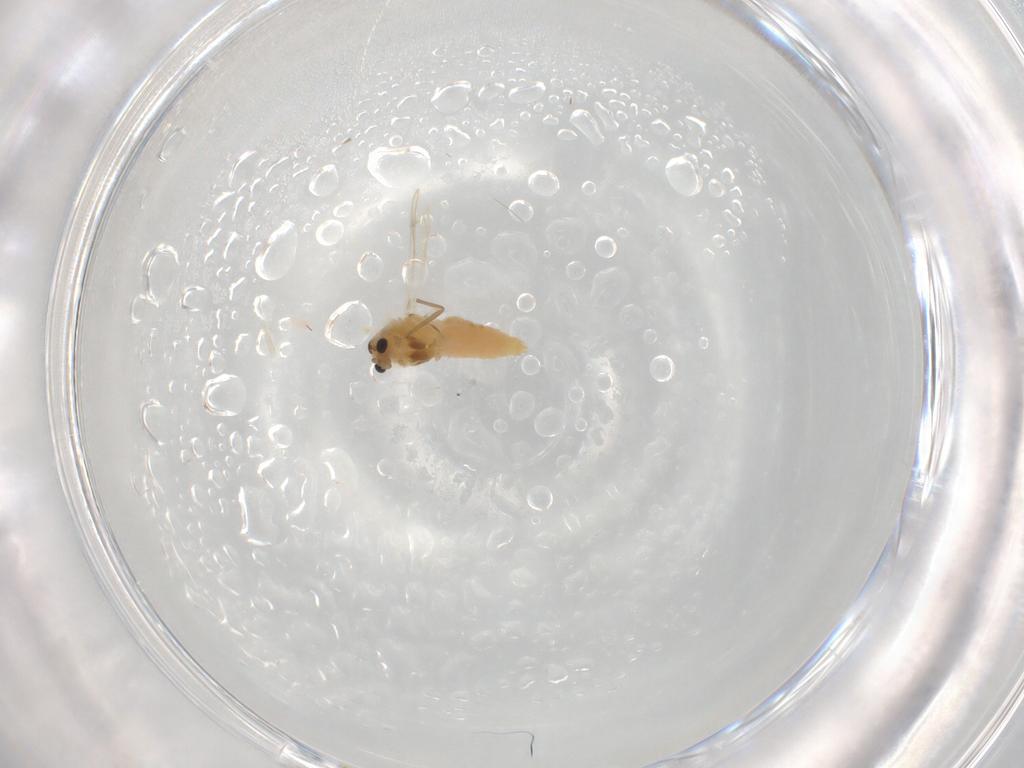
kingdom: Animalia
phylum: Arthropoda
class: Insecta
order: Diptera
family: Chironomidae
